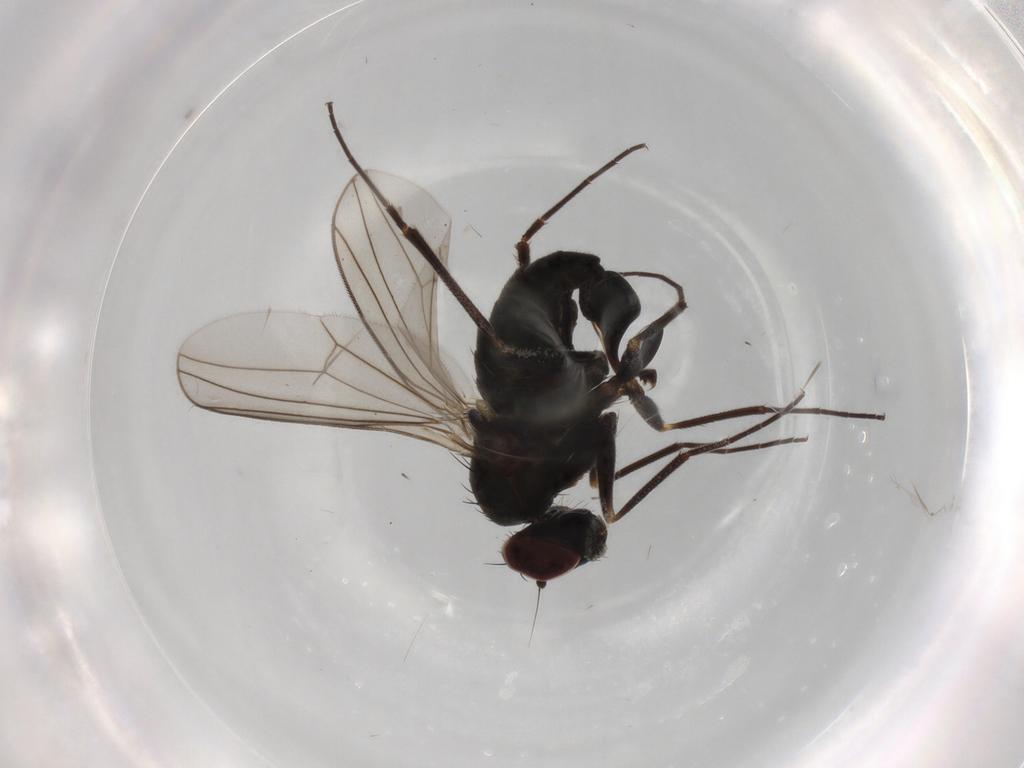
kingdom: Animalia
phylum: Arthropoda
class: Insecta
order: Diptera
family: Dolichopodidae
